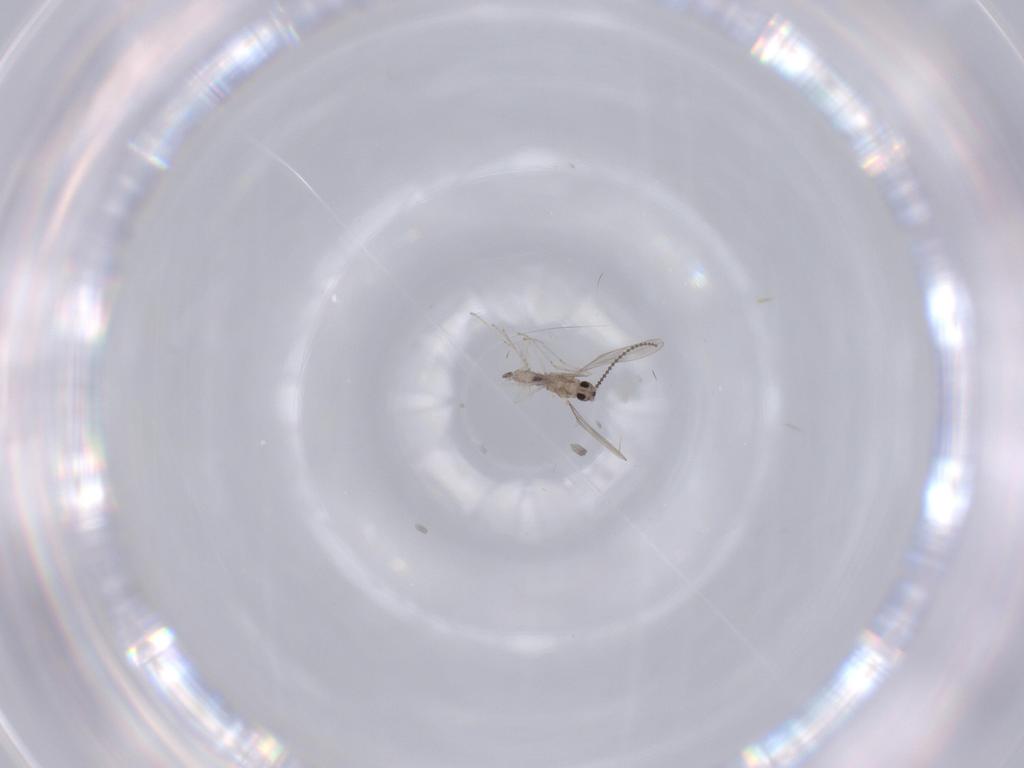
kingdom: Animalia
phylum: Arthropoda
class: Insecta
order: Diptera
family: Cecidomyiidae
